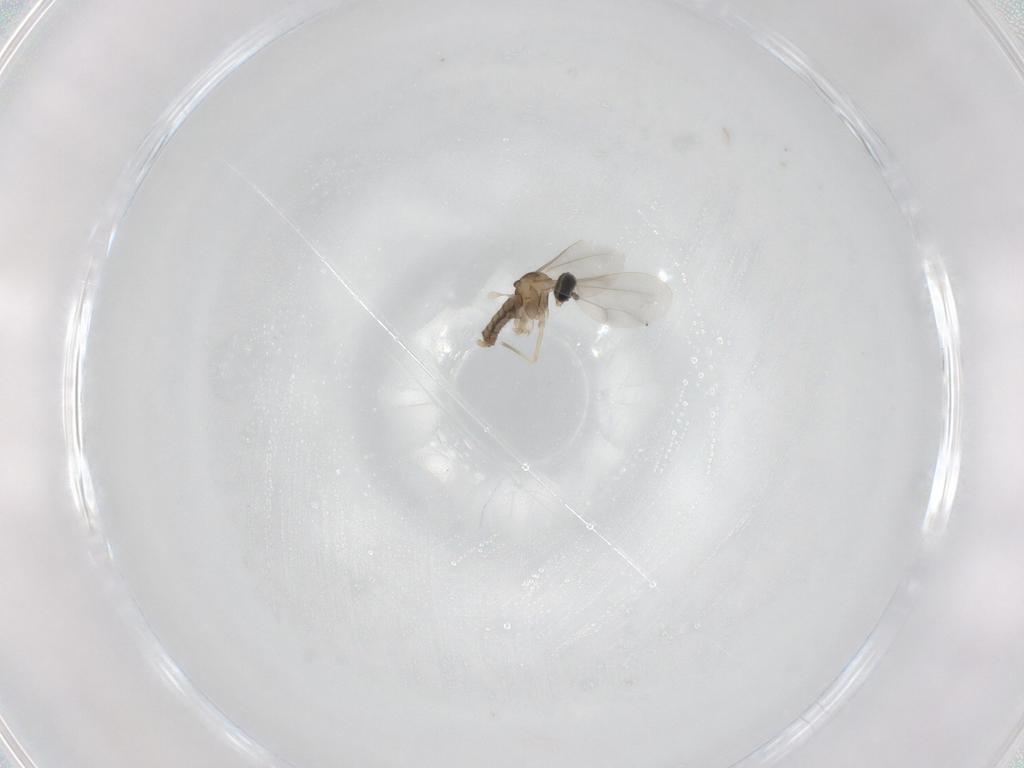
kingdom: Animalia
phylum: Arthropoda
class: Insecta
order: Diptera
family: Cecidomyiidae
